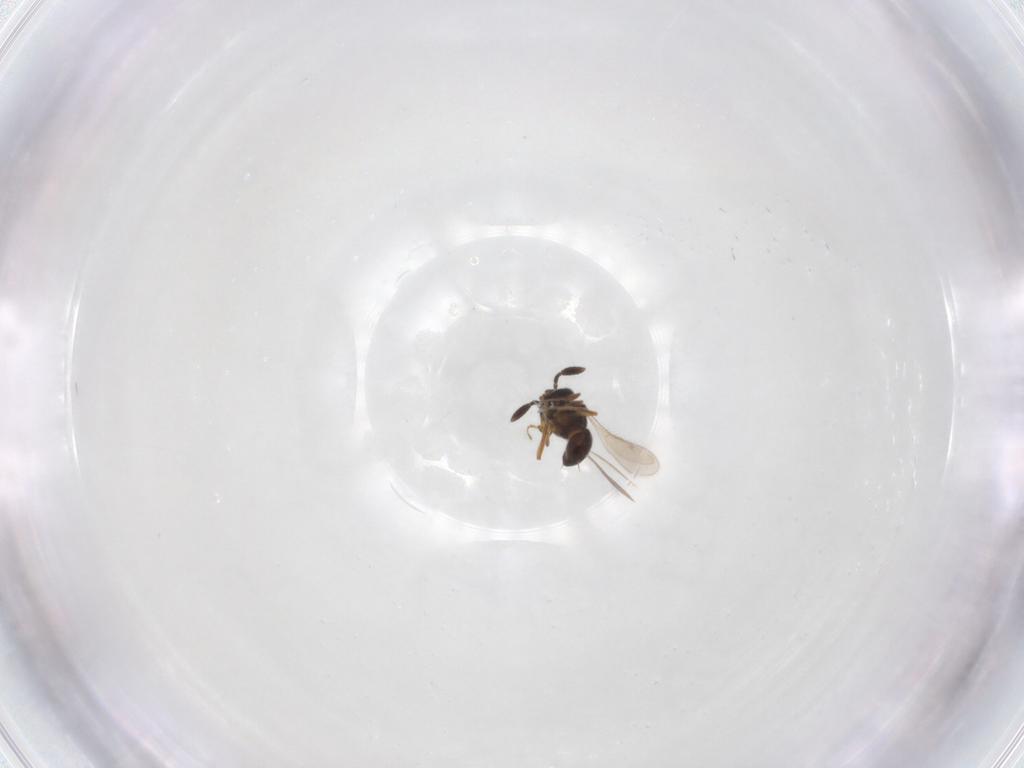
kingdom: Animalia
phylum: Arthropoda
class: Insecta
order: Hymenoptera
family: Scelionidae
